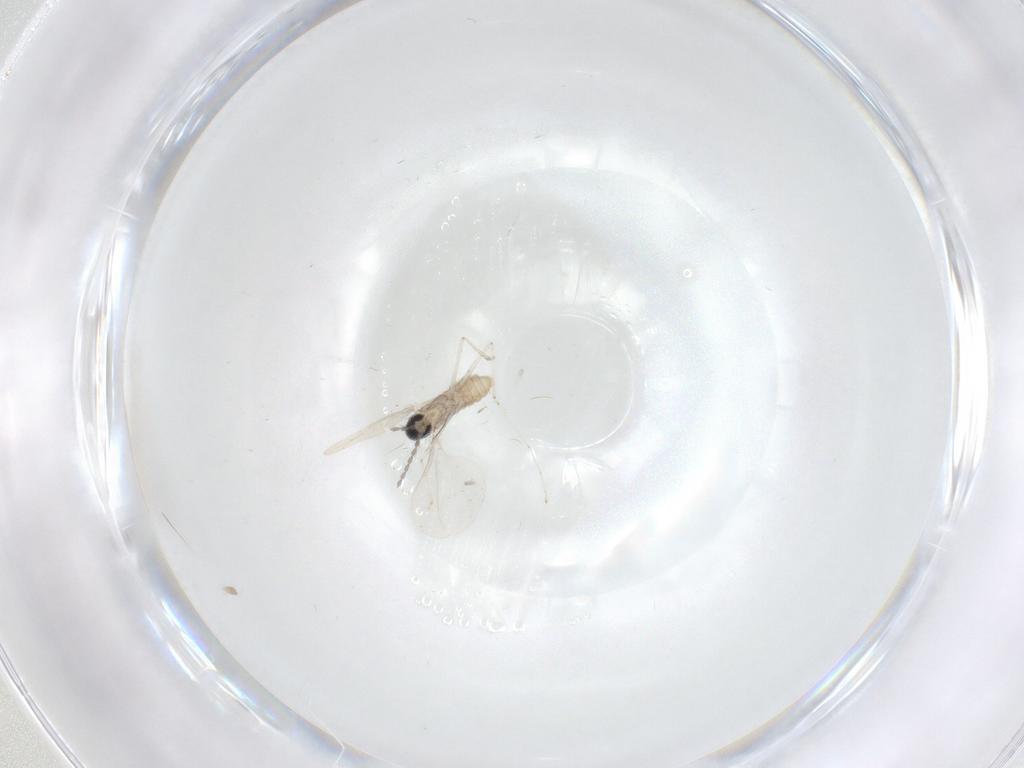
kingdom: Animalia
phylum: Arthropoda
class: Insecta
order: Diptera
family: Cecidomyiidae
